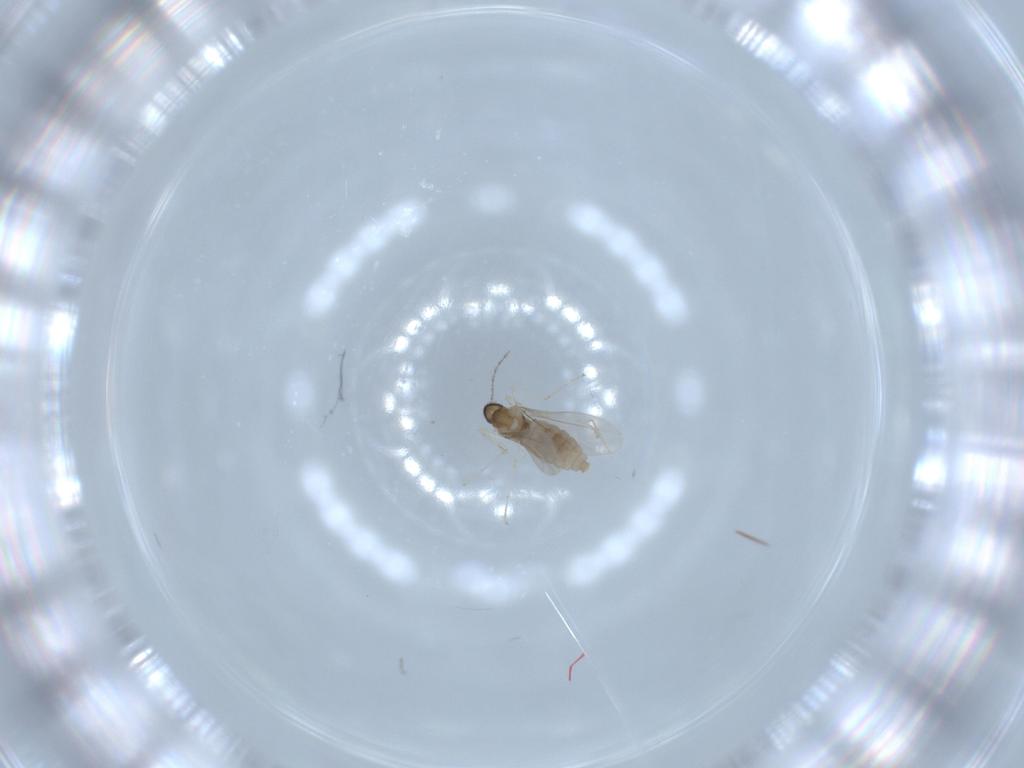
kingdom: Animalia
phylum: Arthropoda
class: Insecta
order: Diptera
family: Cecidomyiidae
